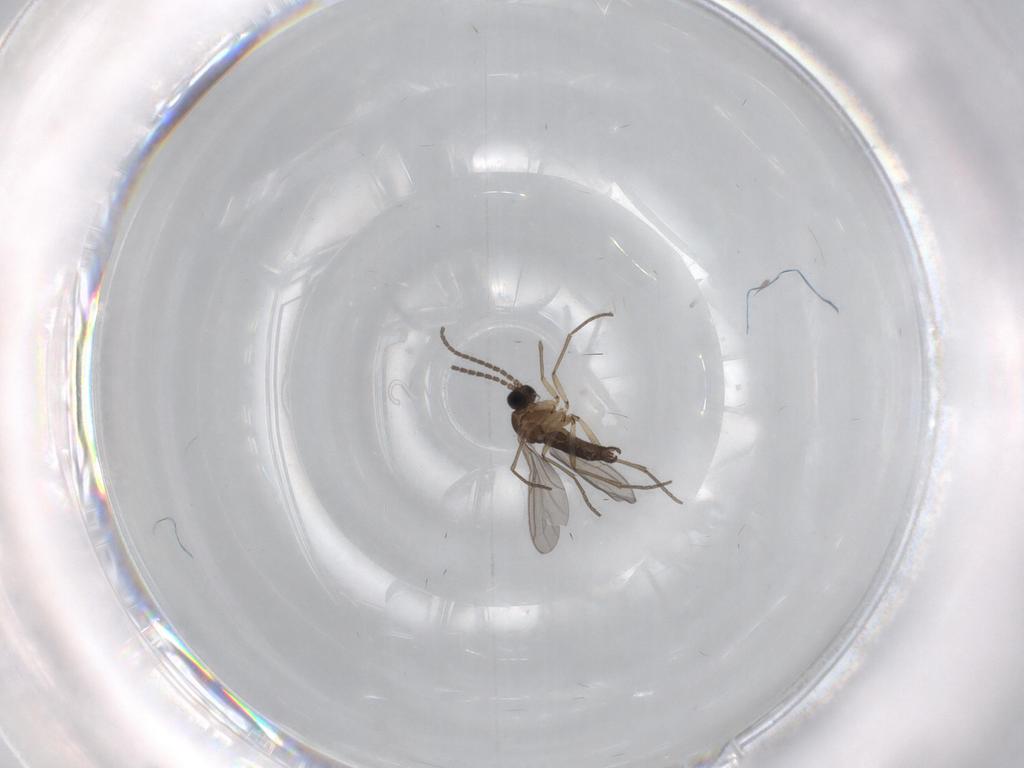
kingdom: Animalia
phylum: Arthropoda
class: Insecta
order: Diptera
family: Sciaridae
